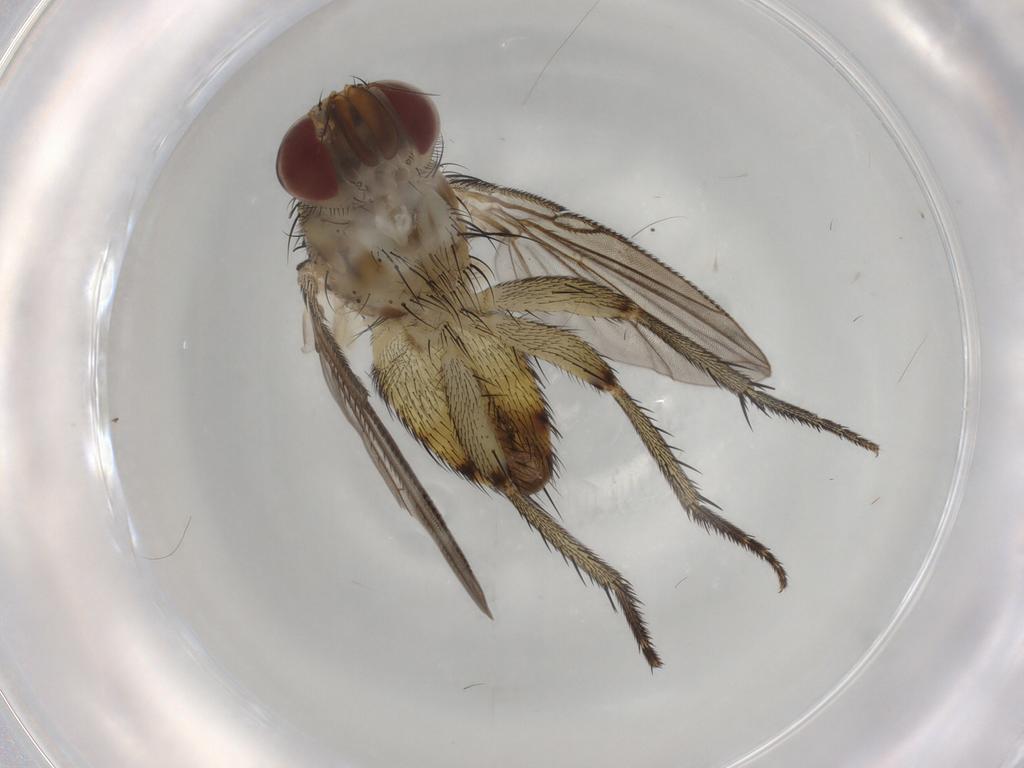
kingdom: Animalia
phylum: Arthropoda
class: Insecta
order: Diptera
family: Tachinidae
